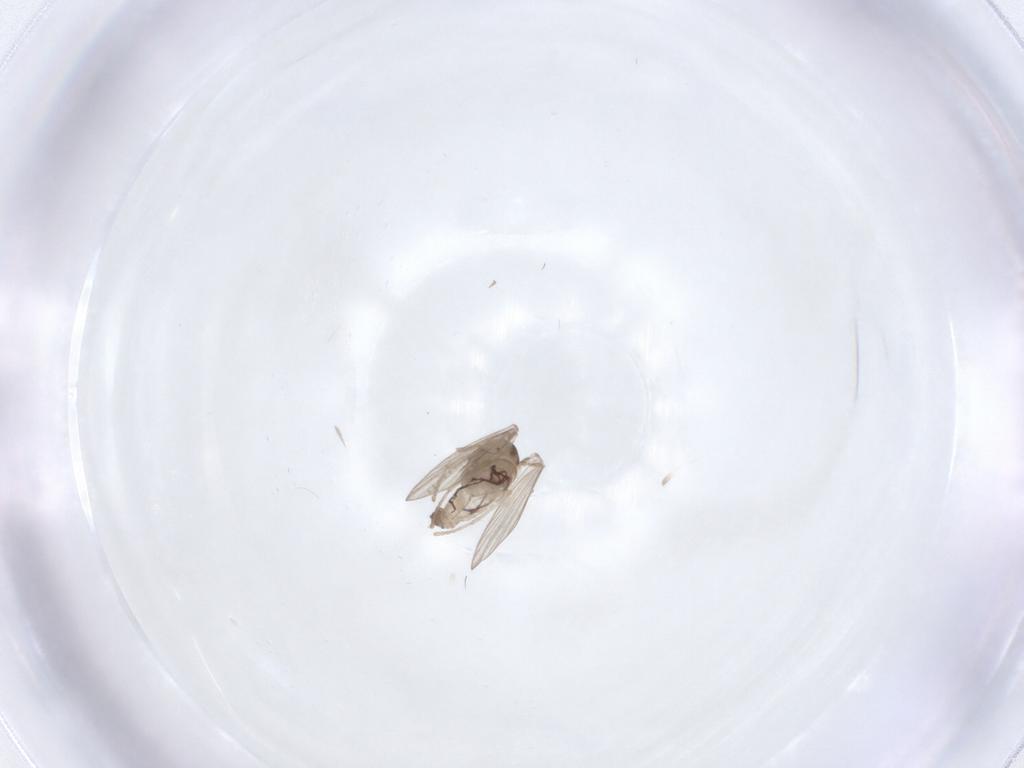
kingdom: Animalia
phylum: Arthropoda
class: Insecta
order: Diptera
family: Psychodidae
